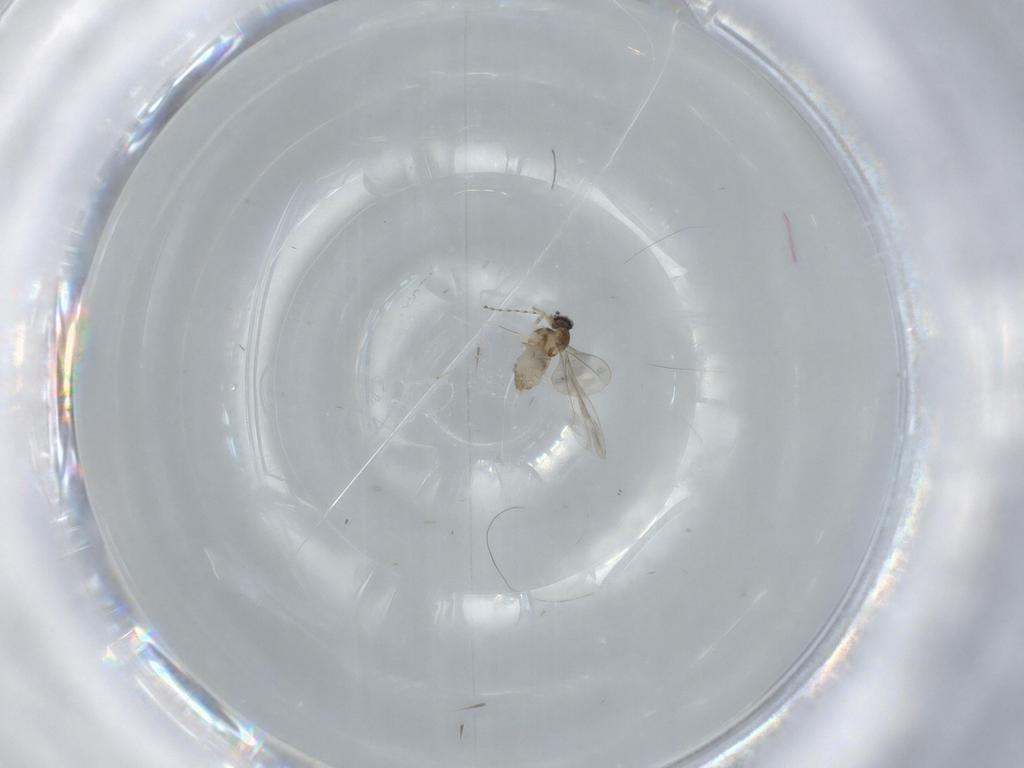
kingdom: Animalia
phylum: Arthropoda
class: Insecta
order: Diptera
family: Cecidomyiidae
